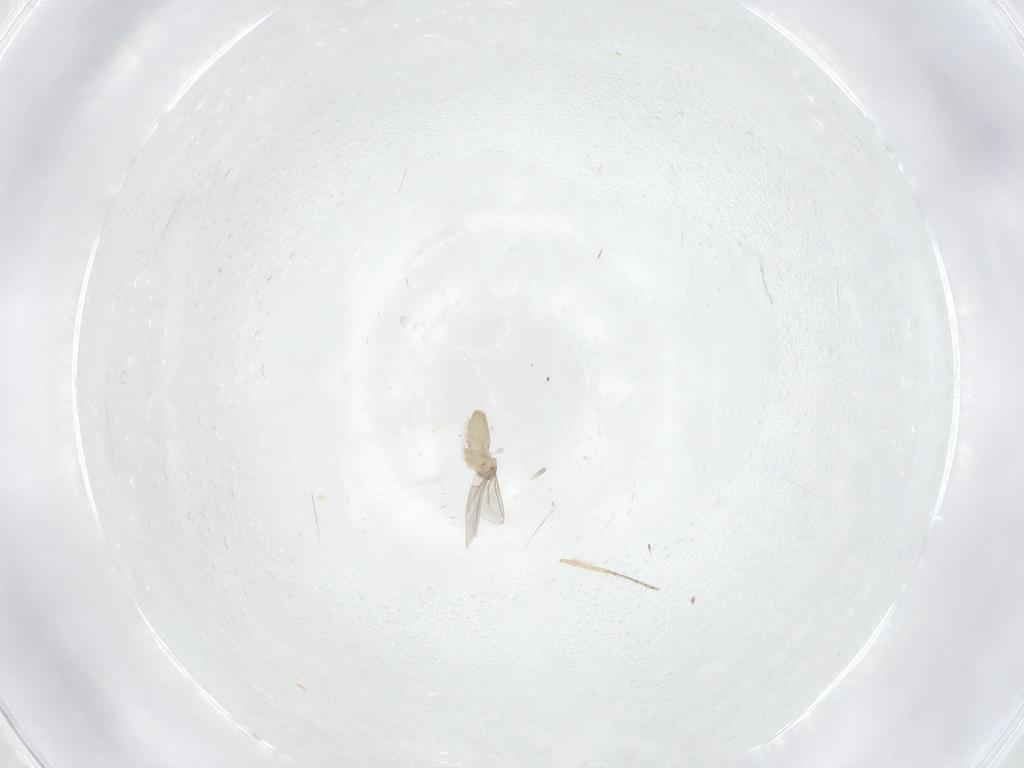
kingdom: Animalia
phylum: Arthropoda
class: Insecta
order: Diptera
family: Cecidomyiidae
